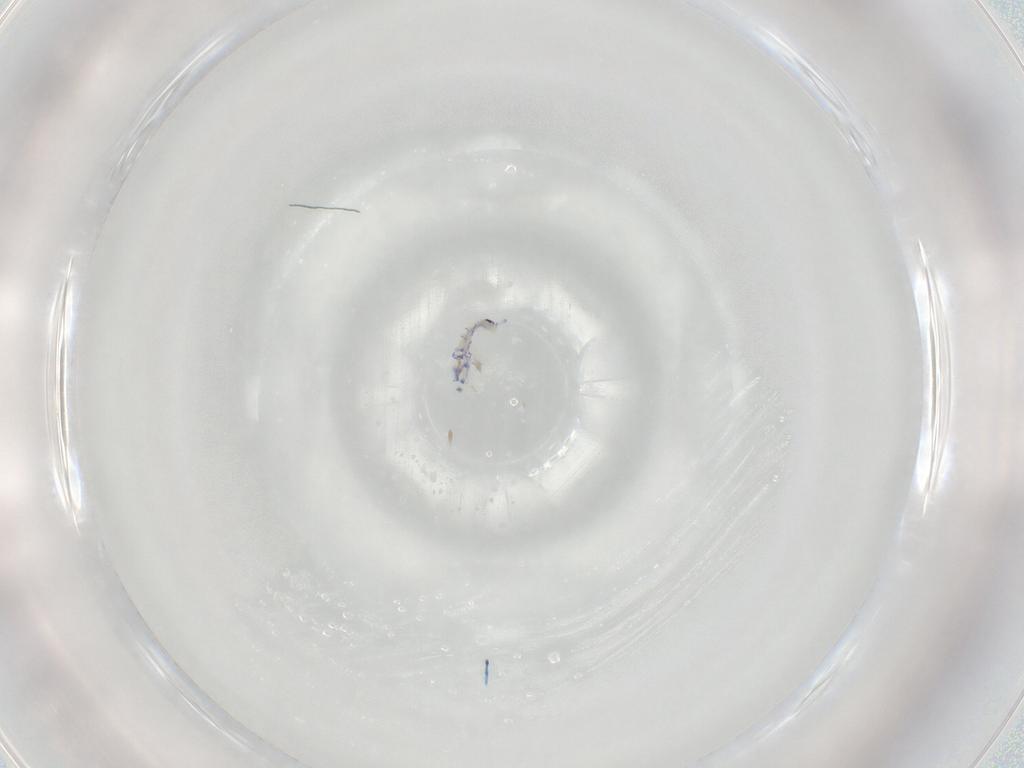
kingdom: Animalia
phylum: Arthropoda
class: Collembola
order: Entomobryomorpha
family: Entomobryidae
